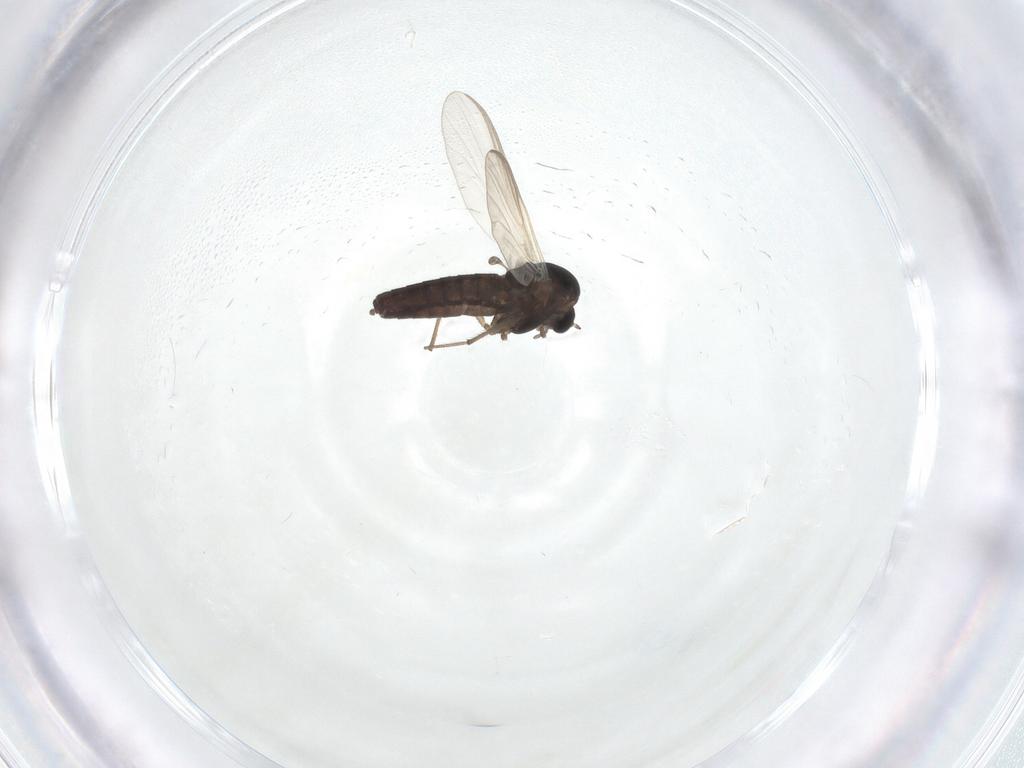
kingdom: Animalia
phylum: Arthropoda
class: Insecta
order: Diptera
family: Chironomidae
